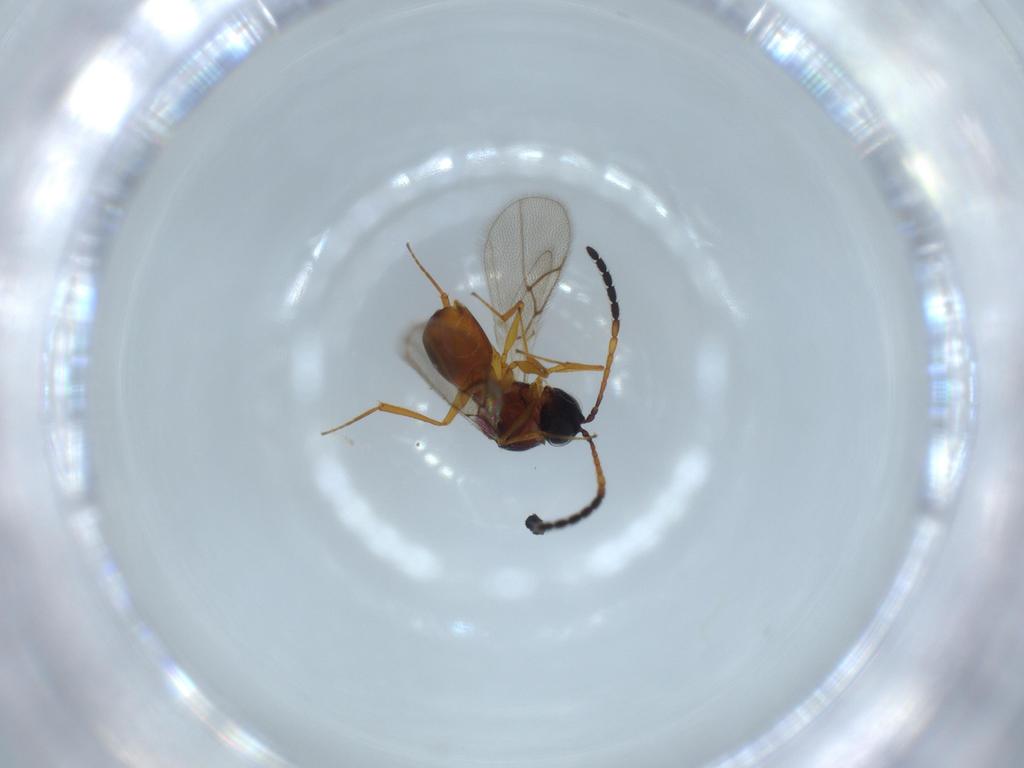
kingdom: Animalia
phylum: Arthropoda
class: Insecta
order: Hymenoptera
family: Figitidae
